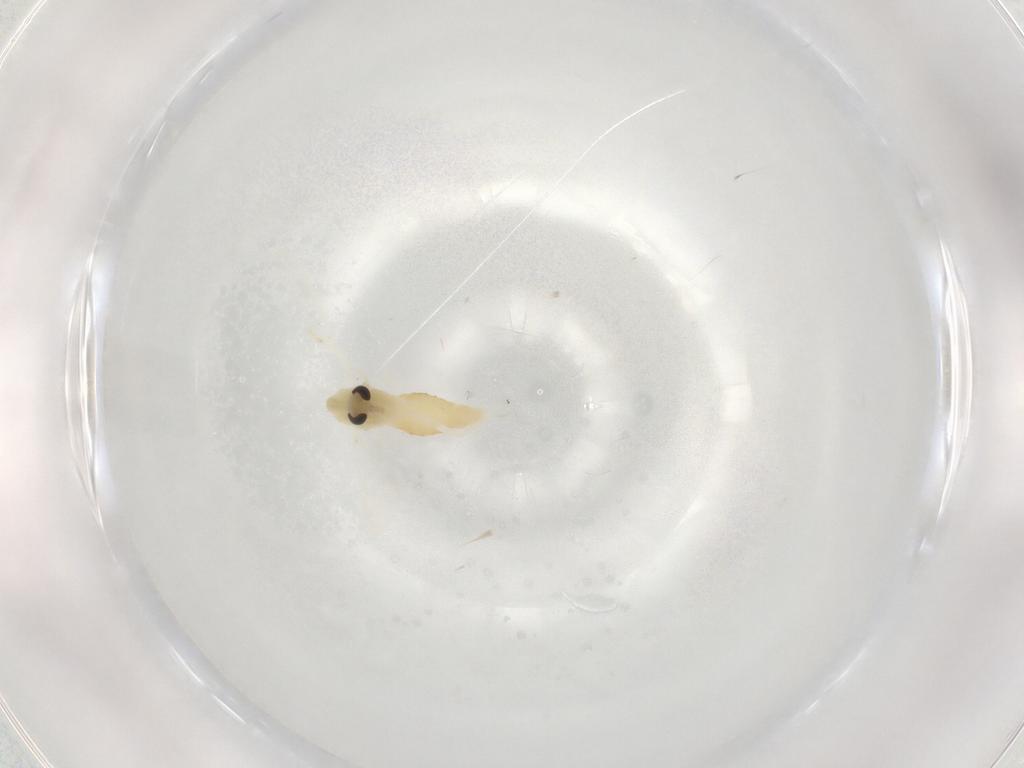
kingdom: Animalia
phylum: Arthropoda
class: Insecta
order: Diptera
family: Chironomidae
